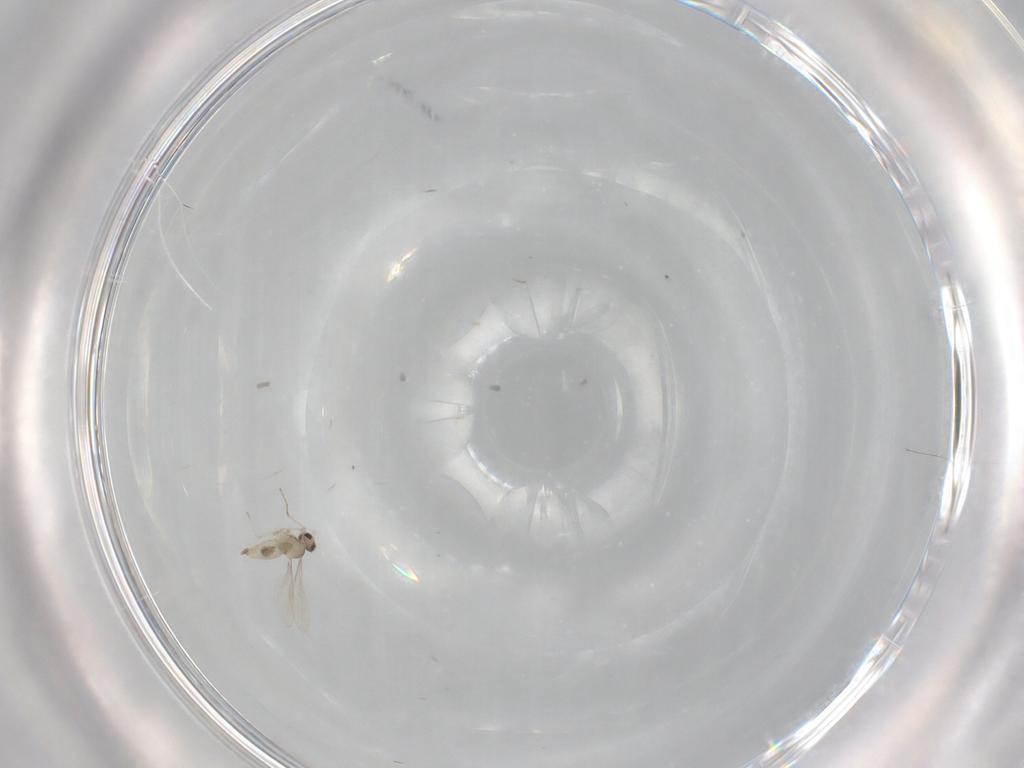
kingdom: Animalia
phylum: Arthropoda
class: Insecta
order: Diptera
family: Cecidomyiidae
